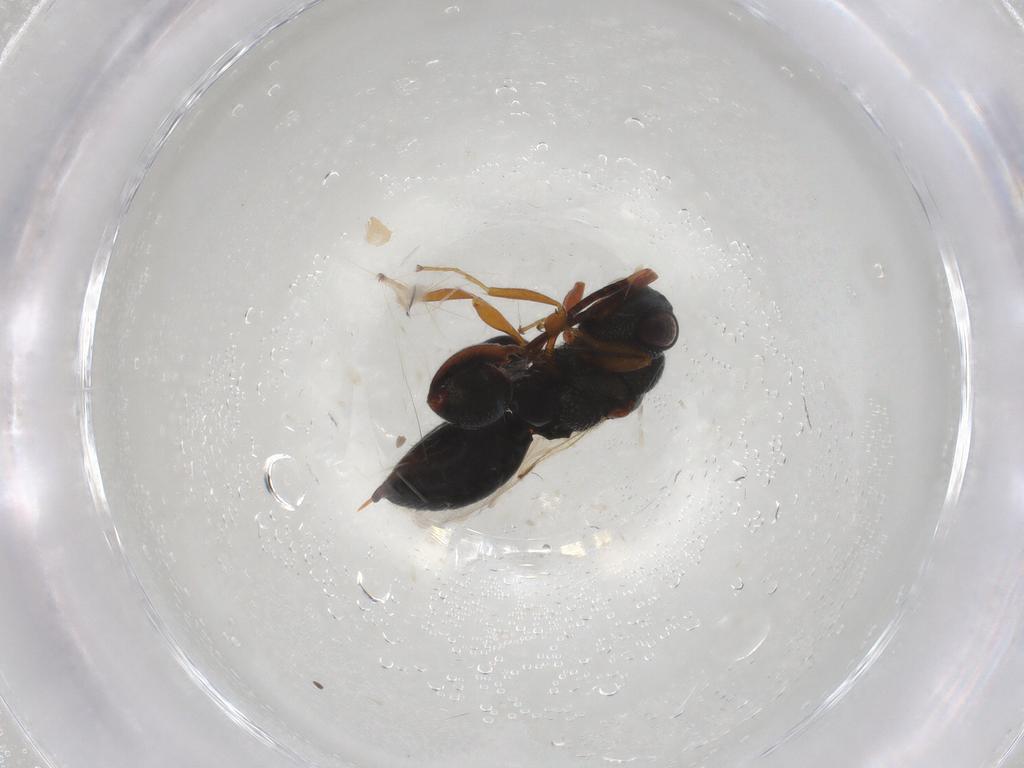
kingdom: Animalia
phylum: Arthropoda
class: Insecta
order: Hymenoptera
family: Chalcididae
